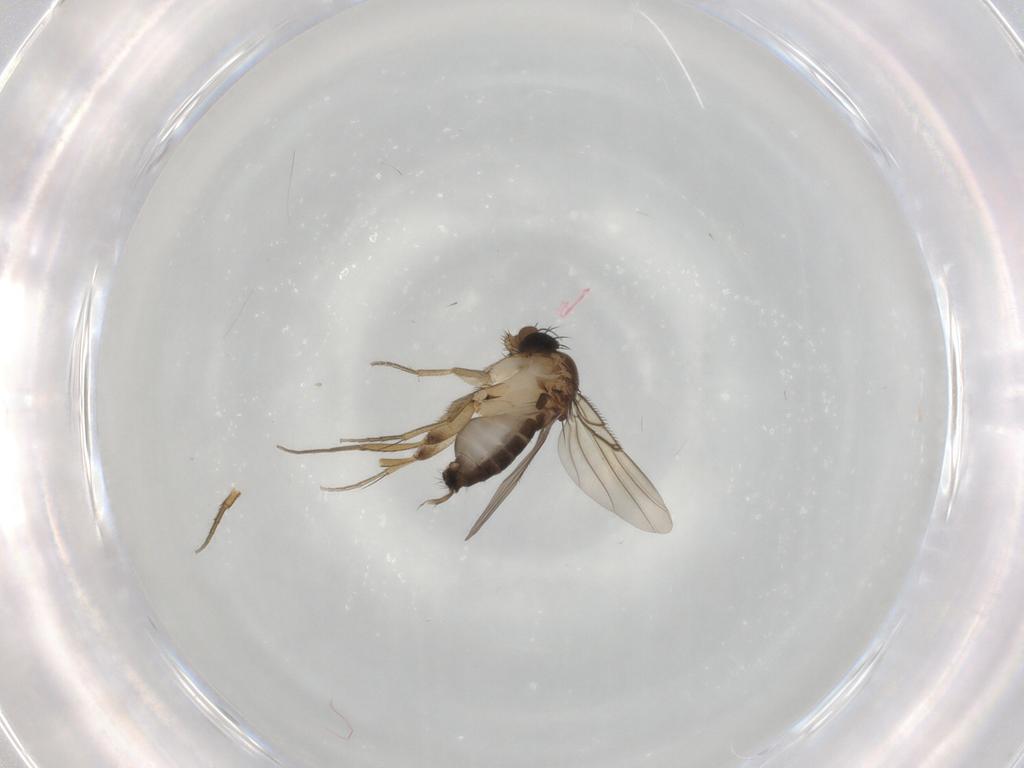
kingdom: Animalia
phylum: Arthropoda
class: Insecta
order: Diptera
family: Phoridae
